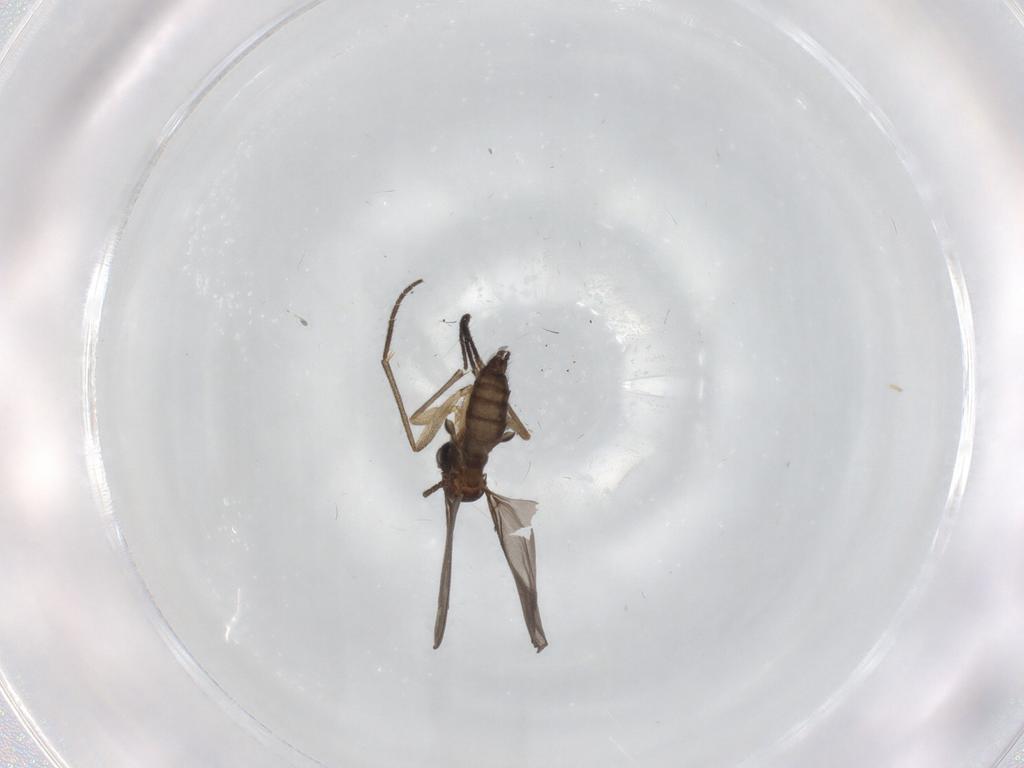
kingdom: Animalia
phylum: Arthropoda
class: Insecta
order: Diptera
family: Sciaridae
